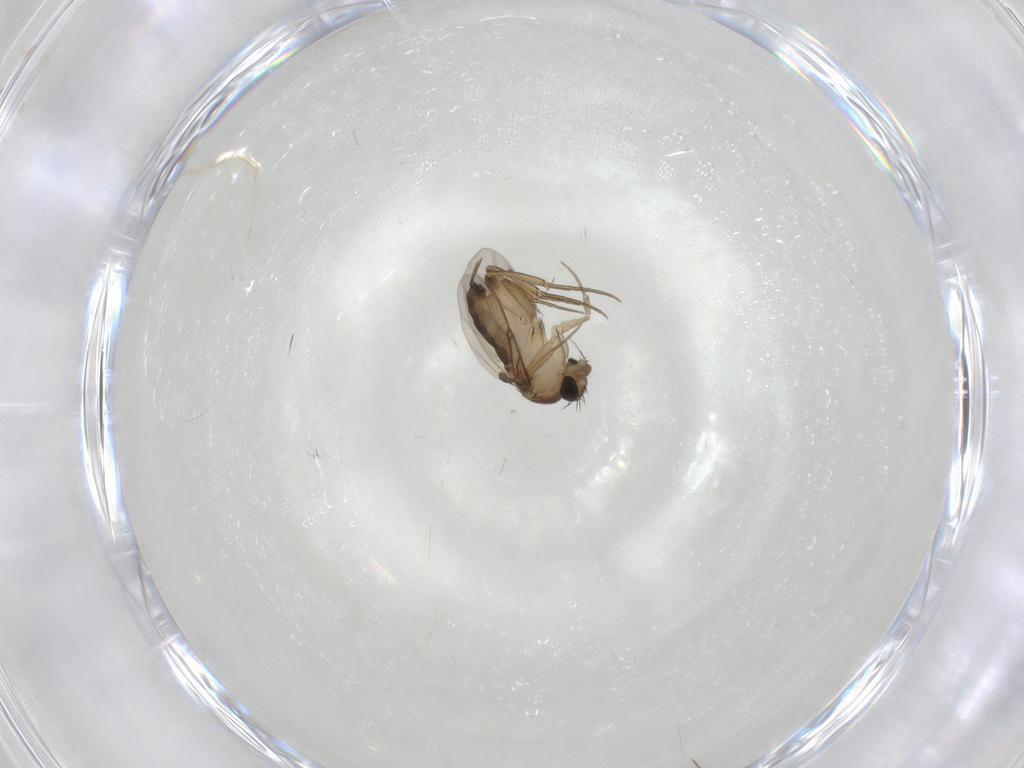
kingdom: Animalia
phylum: Arthropoda
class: Insecta
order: Diptera
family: Phoridae
